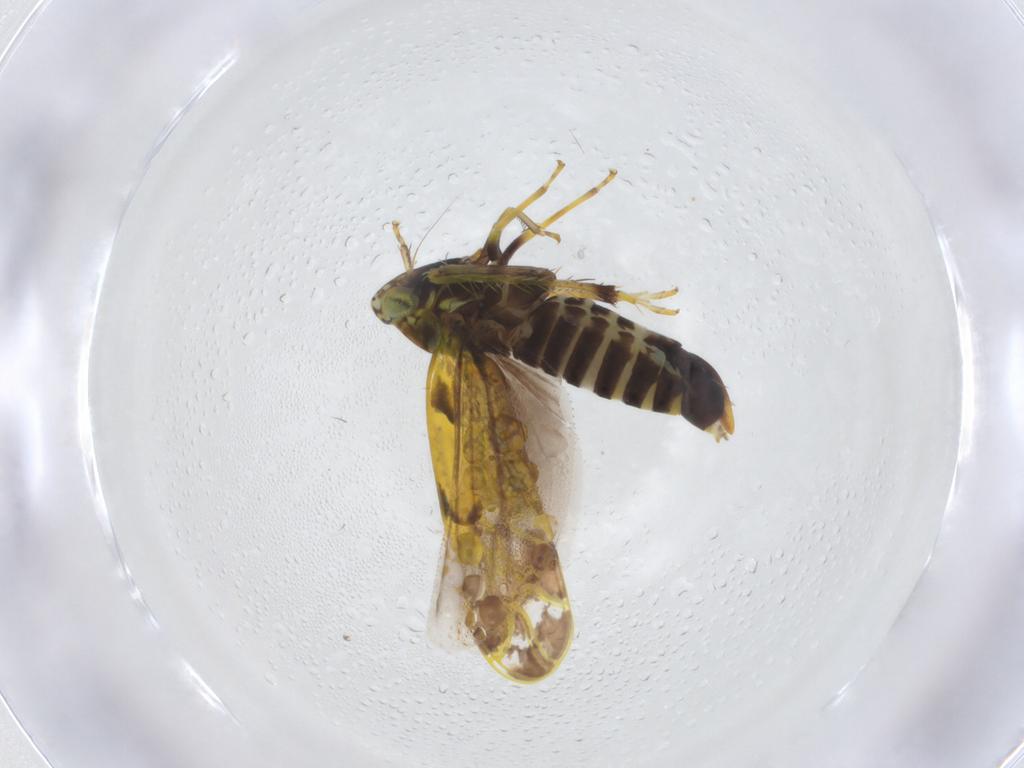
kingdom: Animalia
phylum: Arthropoda
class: Insecta
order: Hemiptera
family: Cicadellidae
